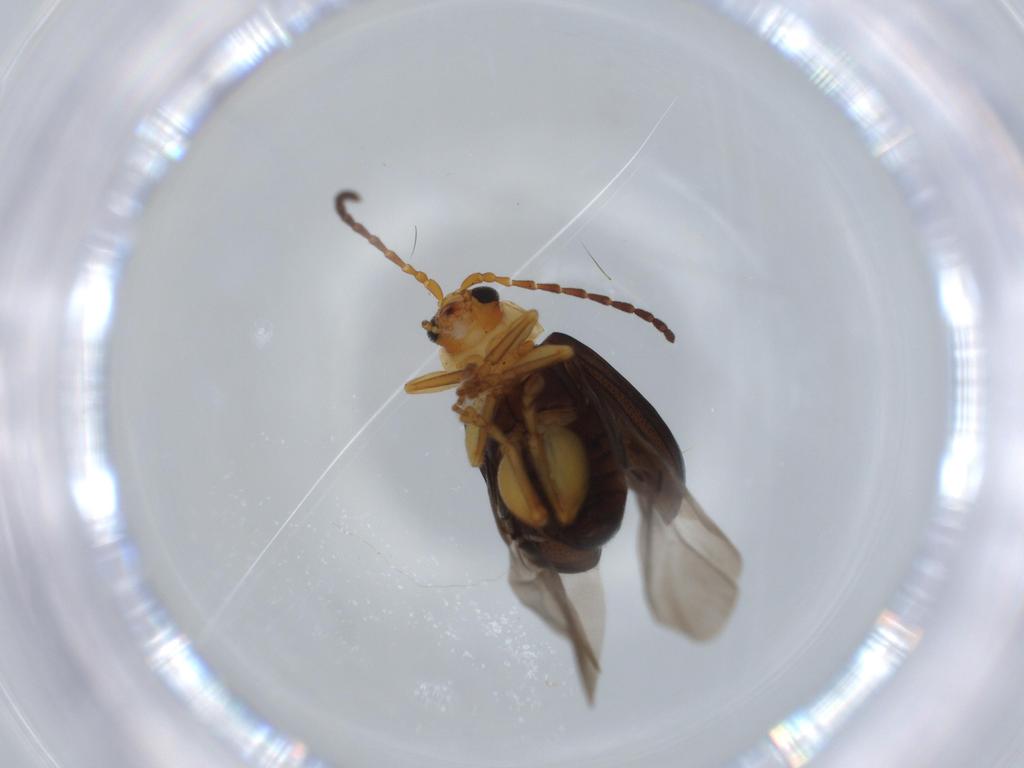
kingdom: Animalia
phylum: Arthropoda
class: Insecta
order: Coleoptera
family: Chrysomelidae
